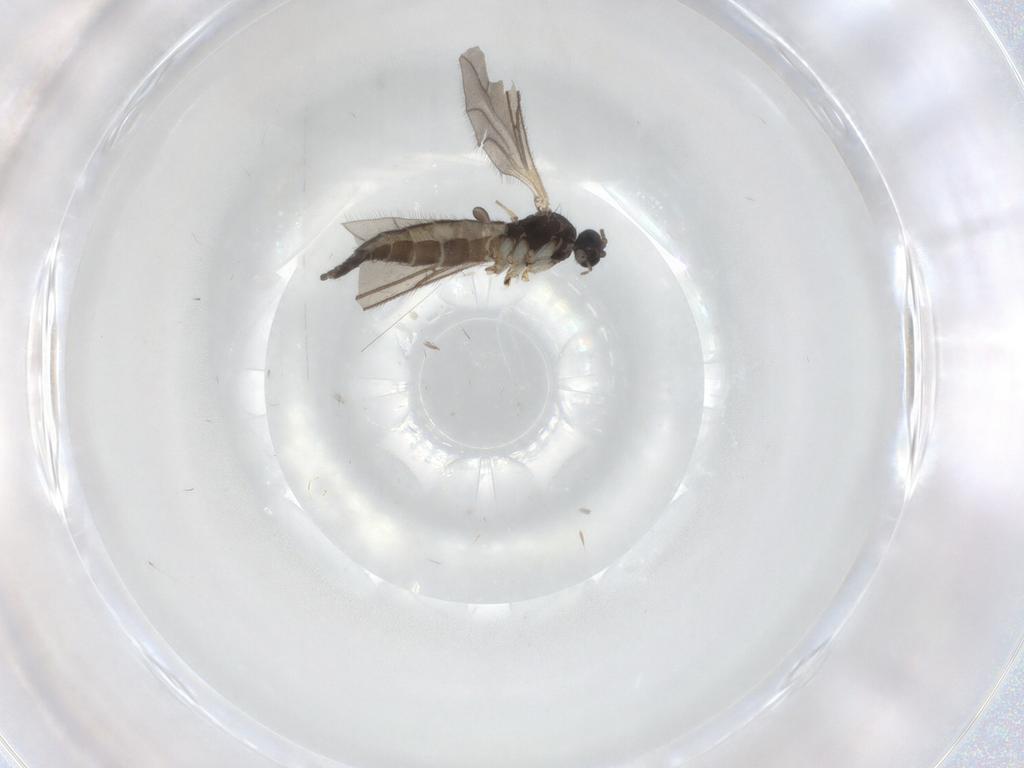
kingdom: Animalia
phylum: Arthropoda
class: Insecta
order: Diptera
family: Sciaridae
